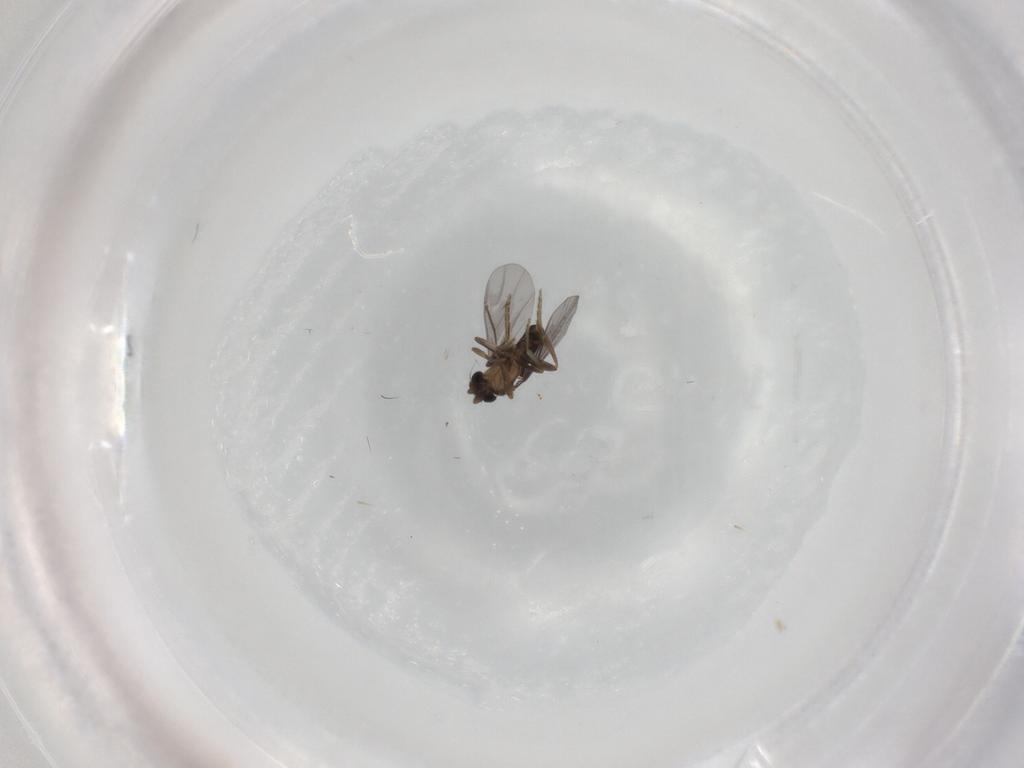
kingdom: Animalia
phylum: Arthropoda
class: Insecta
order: Diptera
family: Cecidomyiidae
